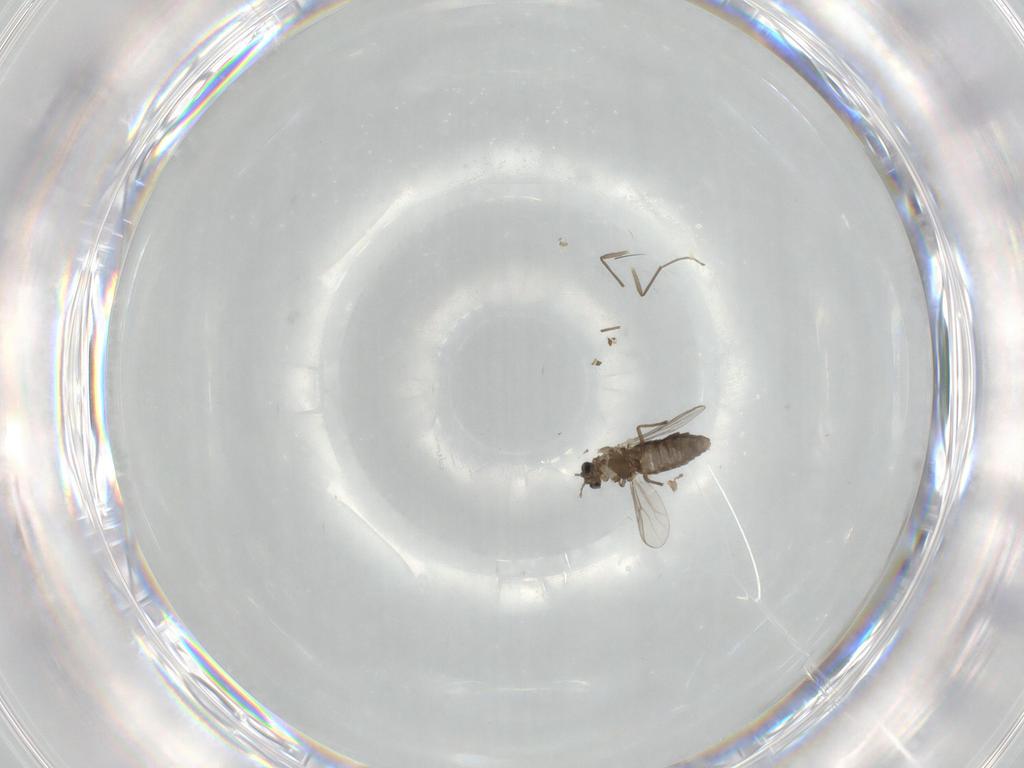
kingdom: Animalia
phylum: Arthropoda
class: Insecta
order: Diptera
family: Chironomidae
